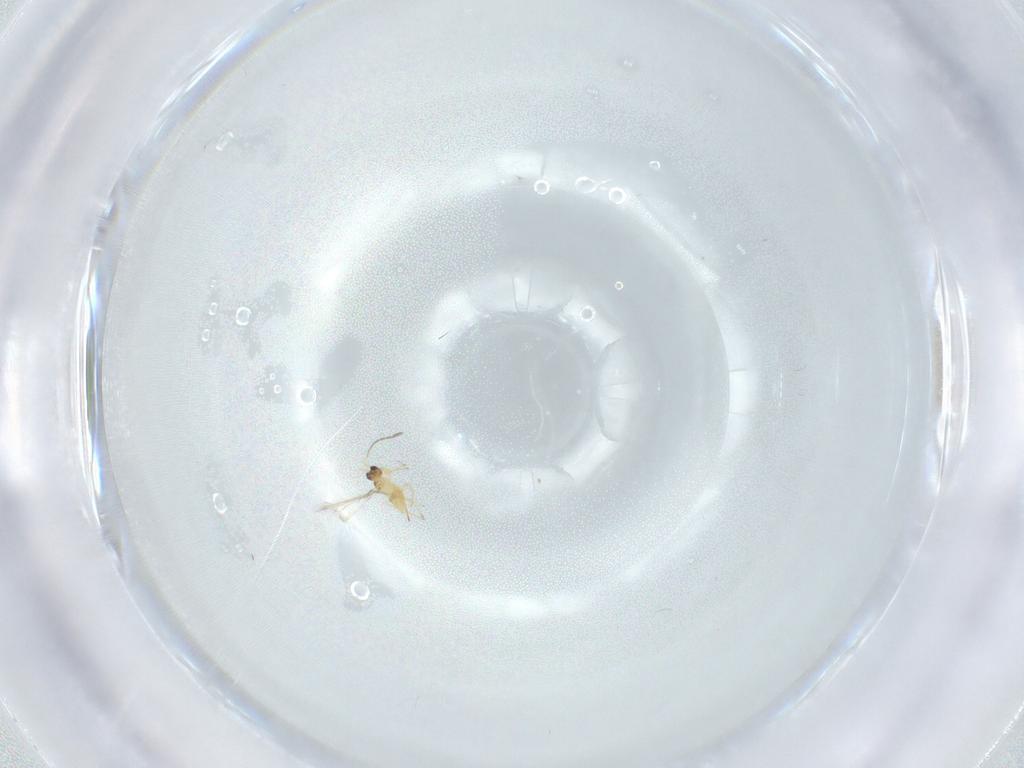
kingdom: Animalia
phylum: Arthropoda
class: Insecta
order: Hymenoptera
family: Mymaridae
